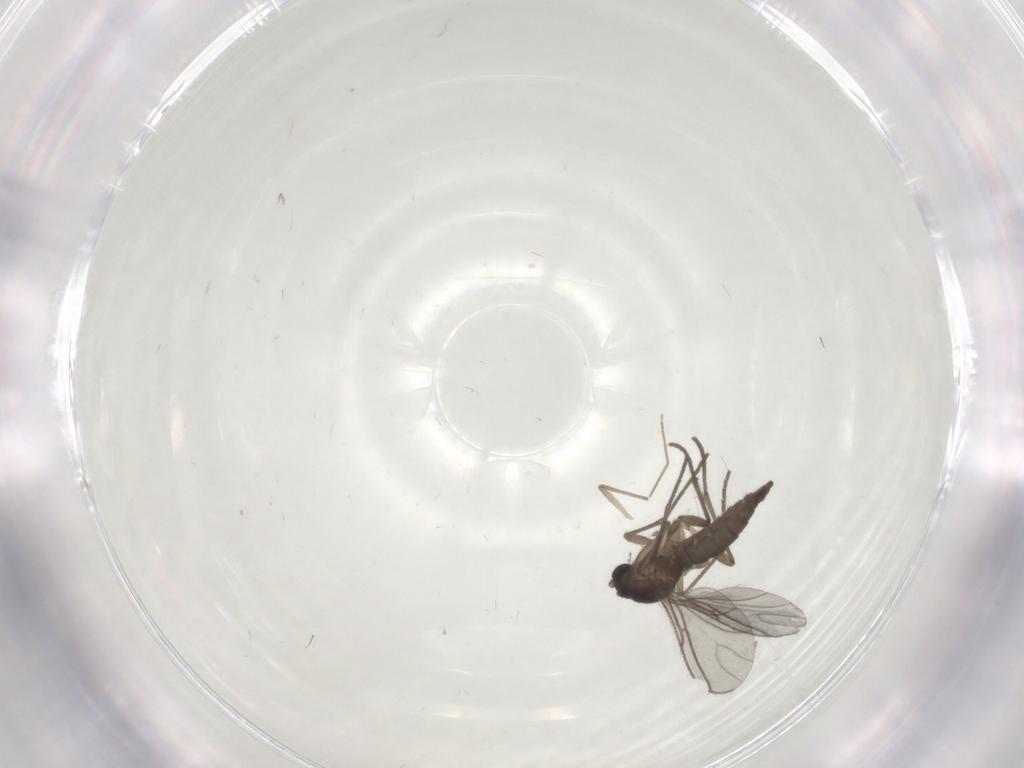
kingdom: Animalia
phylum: Arthropoda
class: Insecta
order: Diptera
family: Chironomidae
